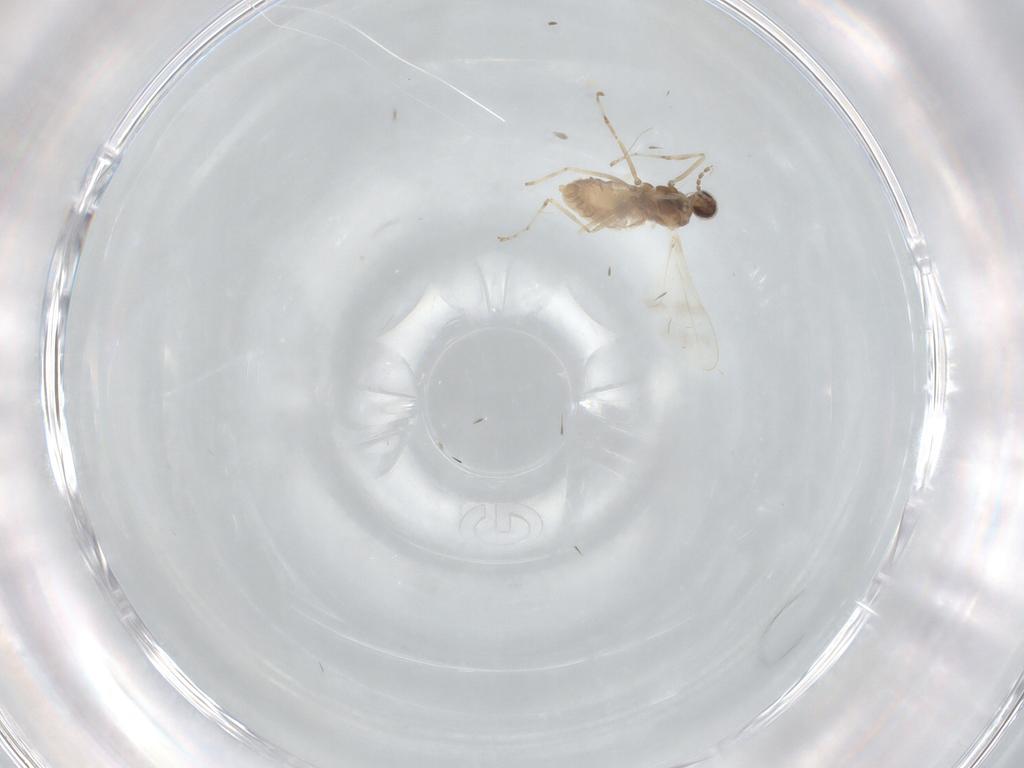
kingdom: Animalia
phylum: Arthropoda
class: Insecta
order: Diptera
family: Cecidomyiidae
